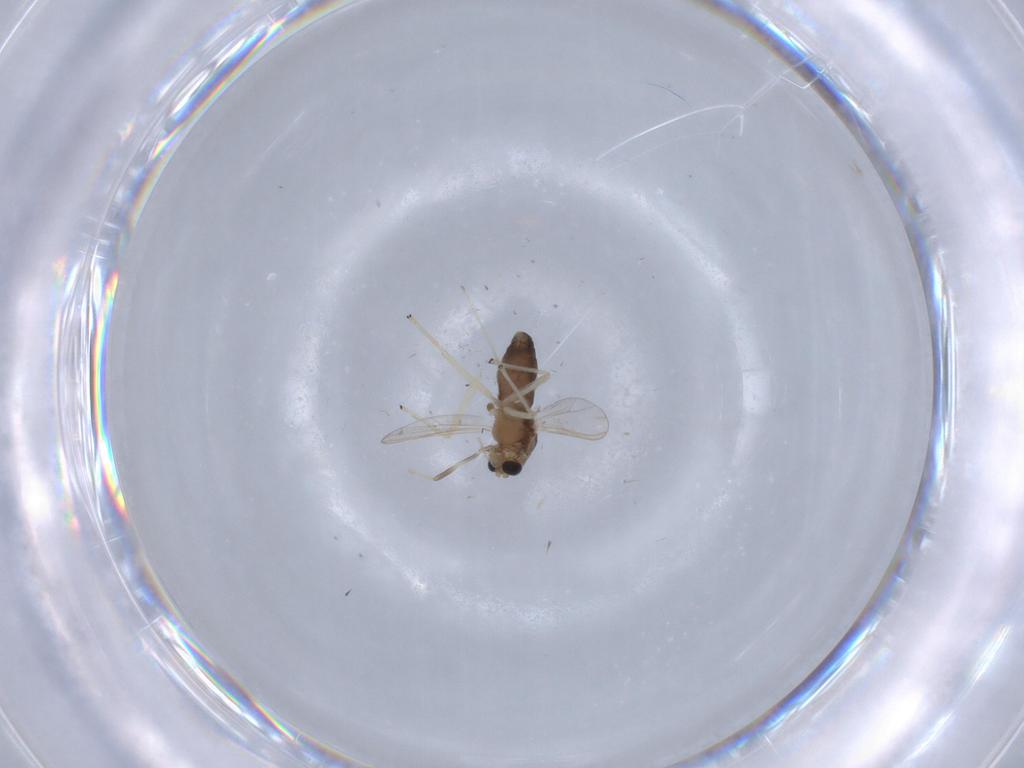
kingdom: Animalia
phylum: Arthropoda
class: Insecta
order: Diptera
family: Chironomidae
